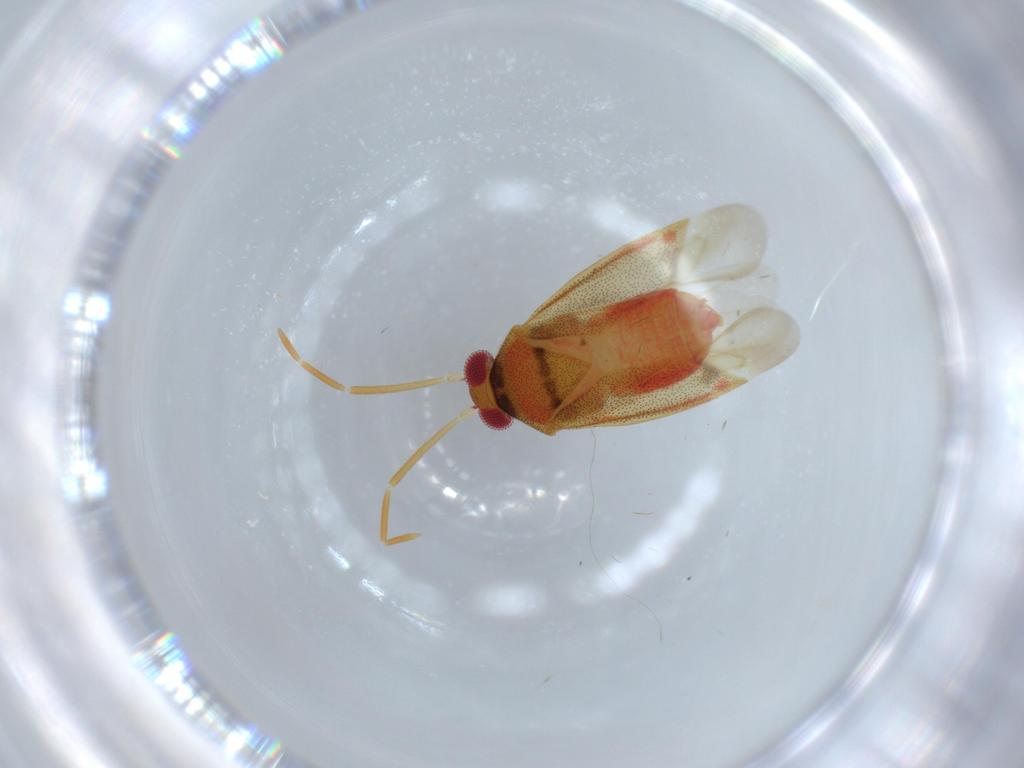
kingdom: Animalia
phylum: Arthropoda
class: Insecta
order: Hemiptera
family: Miridae
